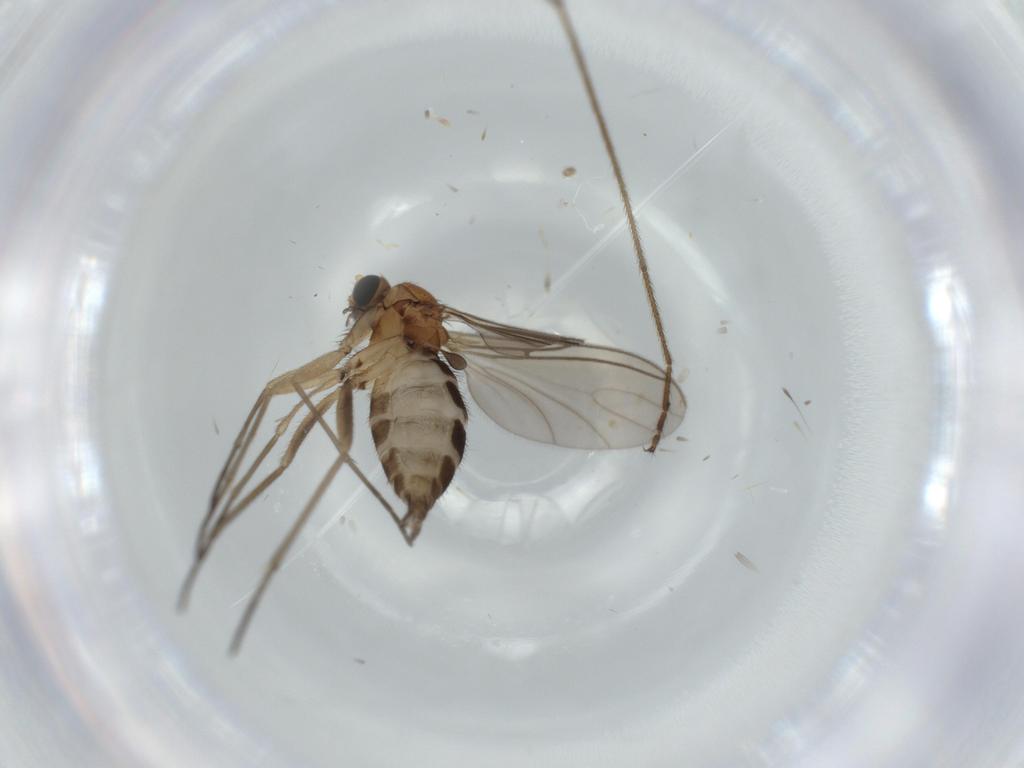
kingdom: Animalia
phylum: Arthropoda
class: Insecta
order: Diptera
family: Sciaridae
